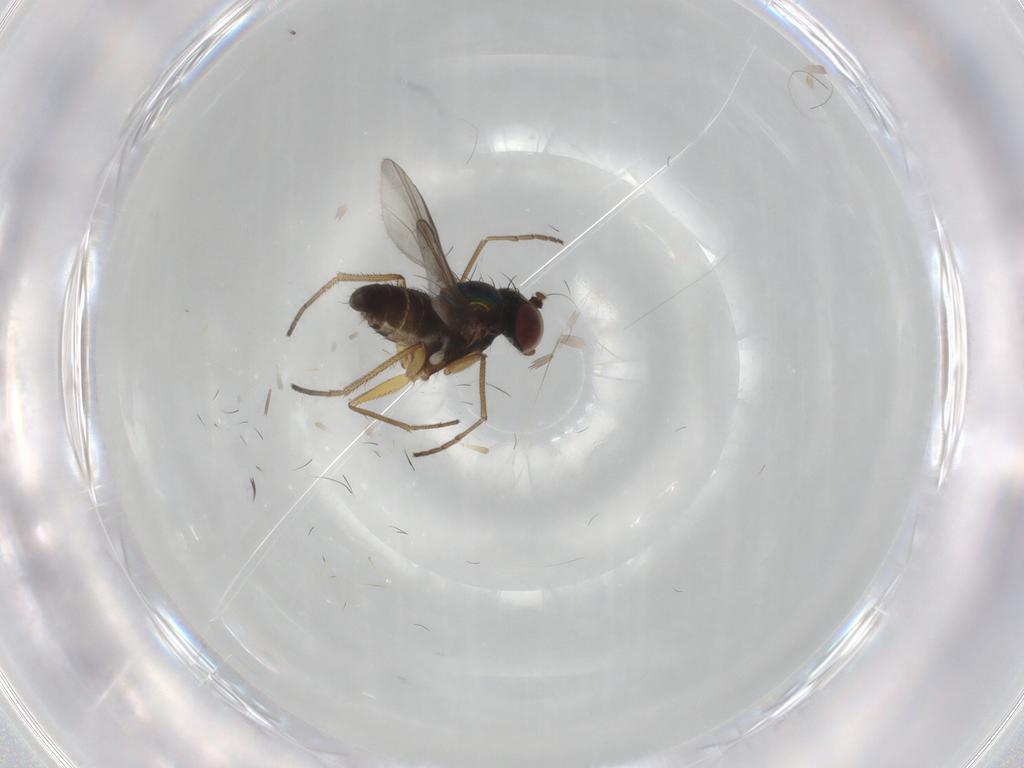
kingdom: Animalia
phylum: Arthropoda
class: Insecta
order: Diptera
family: Dolichopodidae
